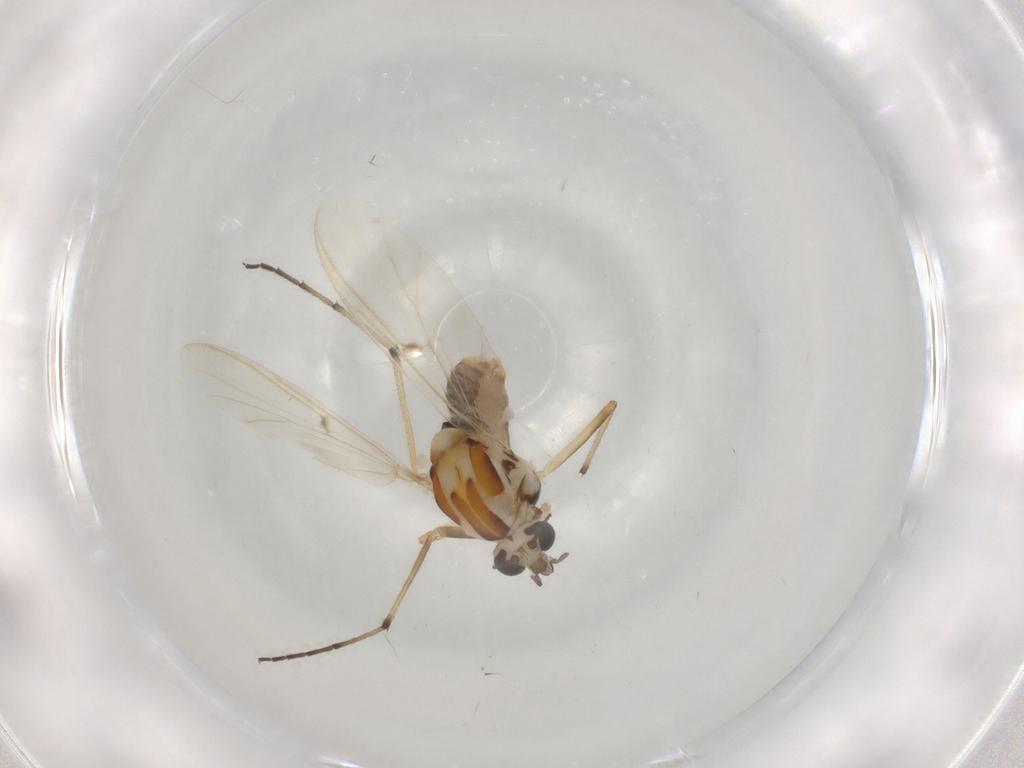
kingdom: Animalia
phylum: Arthropoda
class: Insecta
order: Diptera
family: Chironomidae
